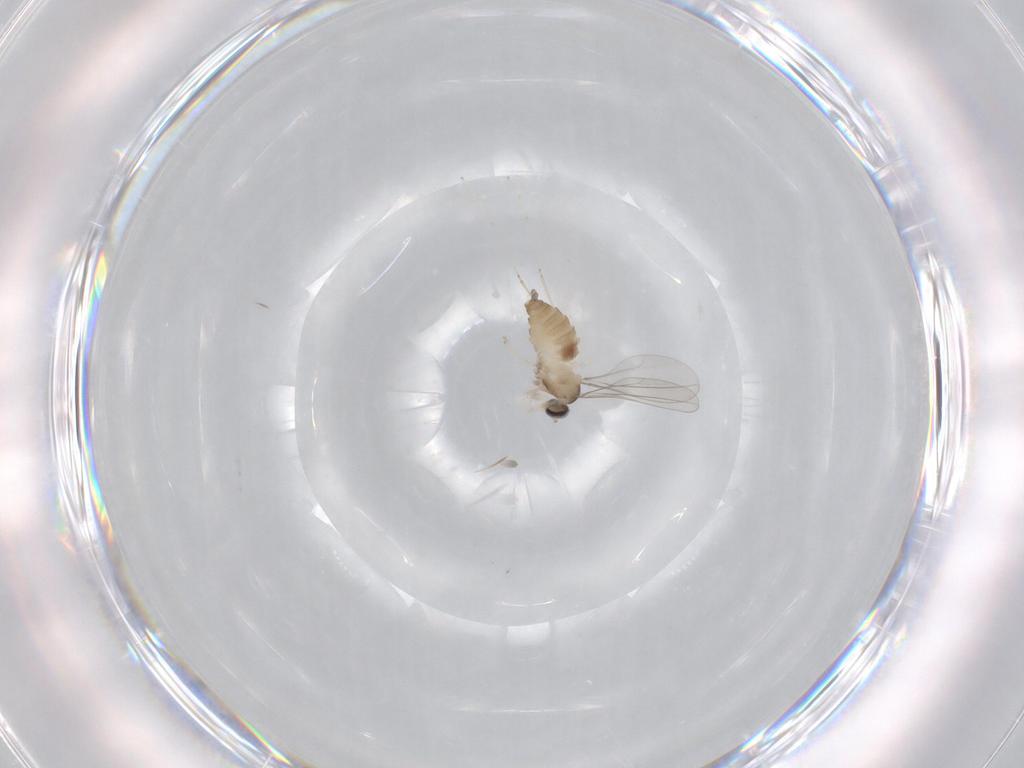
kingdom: Animalia
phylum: Arthropoda
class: Insecta
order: Diptera
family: Cecidomyiidae
